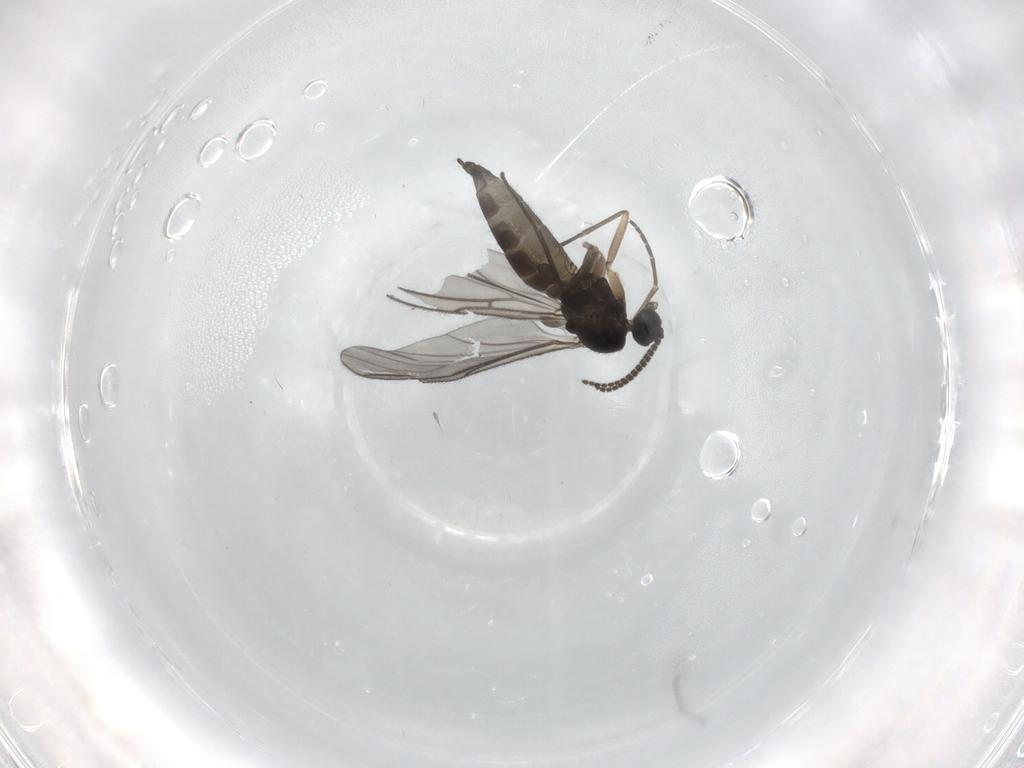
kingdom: Animalia
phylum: Arthropoda
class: Insecta
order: Diptera
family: Sciaridae
